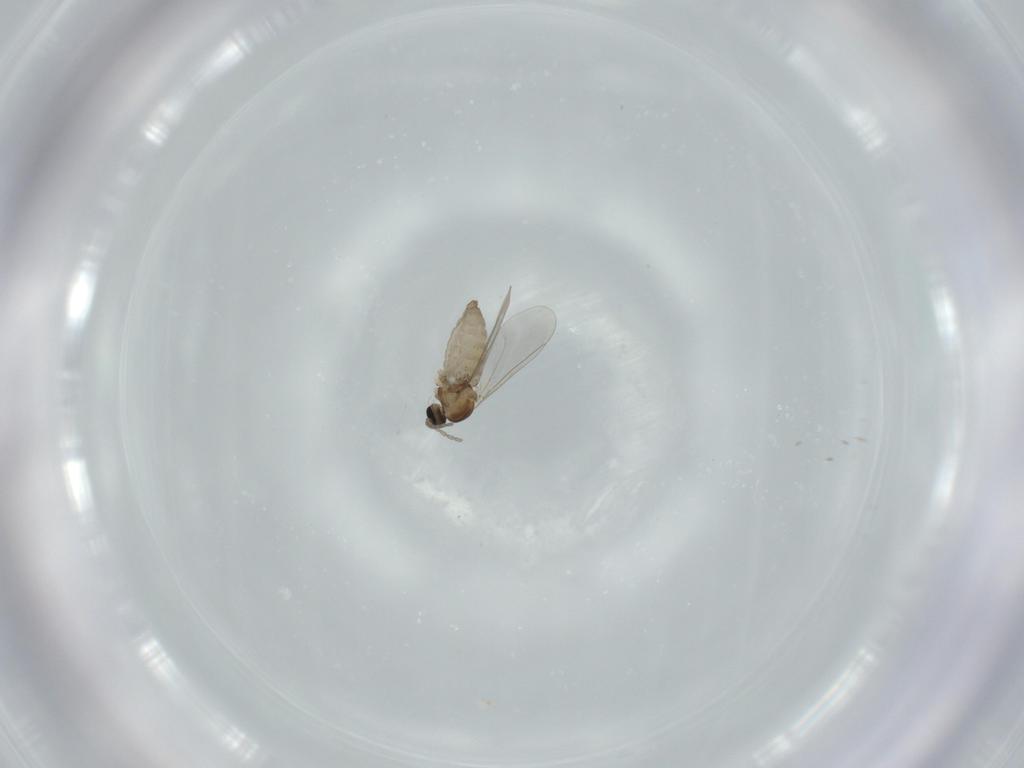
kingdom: Animalia
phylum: Arthropoda
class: Insecta
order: Diptera
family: Cecidomyiidae
